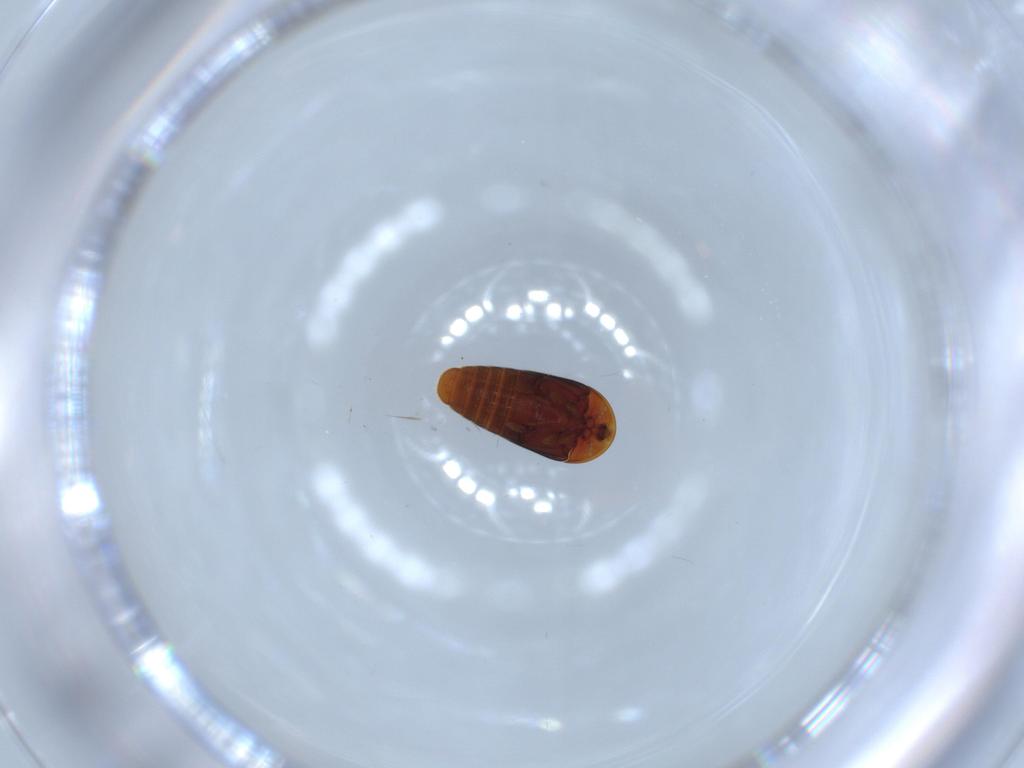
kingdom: Animalia
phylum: Arthropoda
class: Insecta
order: Coleoptera
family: Corylophidae
